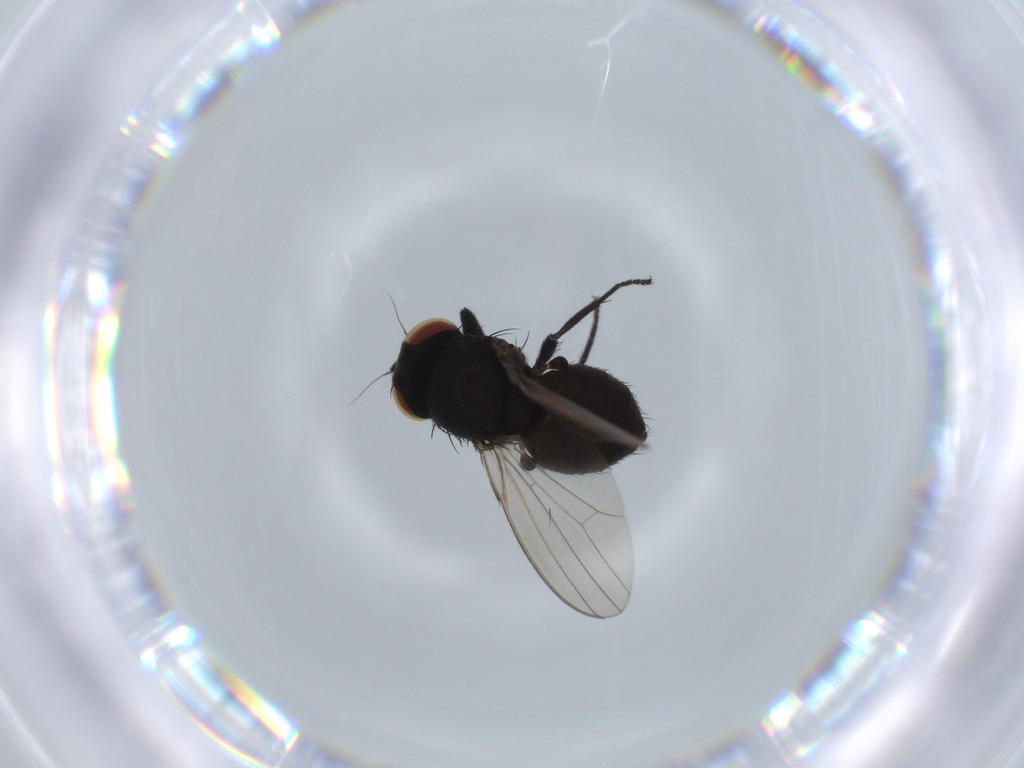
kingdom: Animalia
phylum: Arthropoda
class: Insecta
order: Diptera
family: Milichiidae
